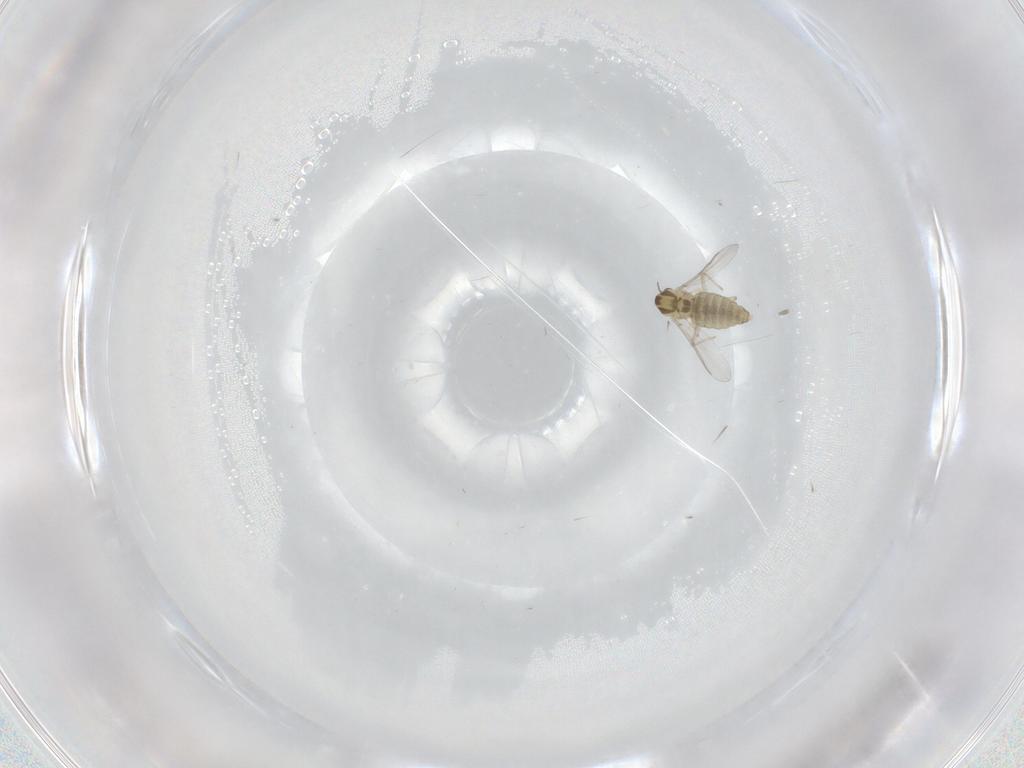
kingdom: Animalia
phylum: Arthropoda
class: Insecta
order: Diptera
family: Chironomidae
